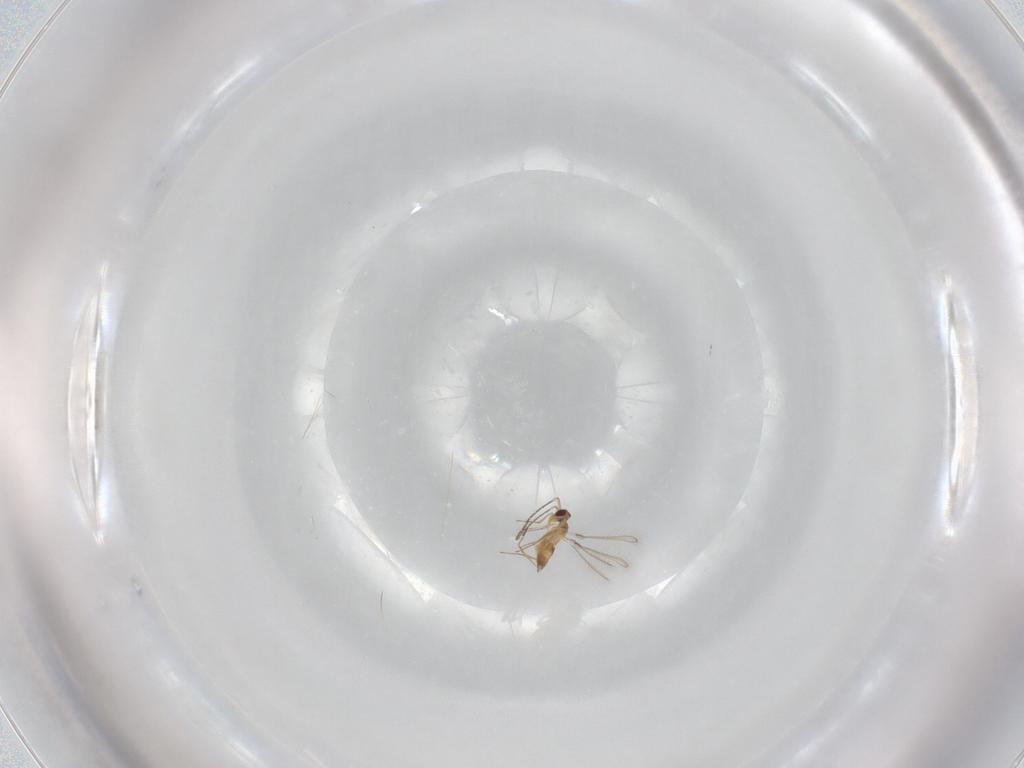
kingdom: Animalia
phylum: Arthropoda
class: Insecta
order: Hymenoptera
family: Mymaridae
